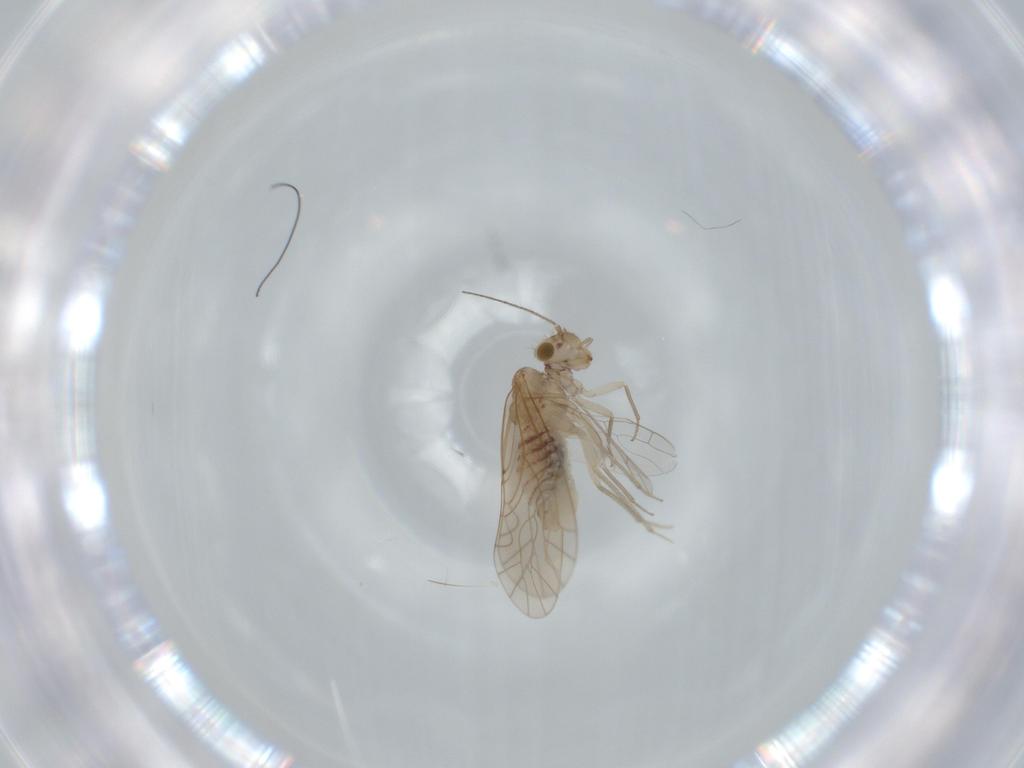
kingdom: Animalia
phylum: Arthropoda
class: Insecta
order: Psocodea
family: Lachesillidae
